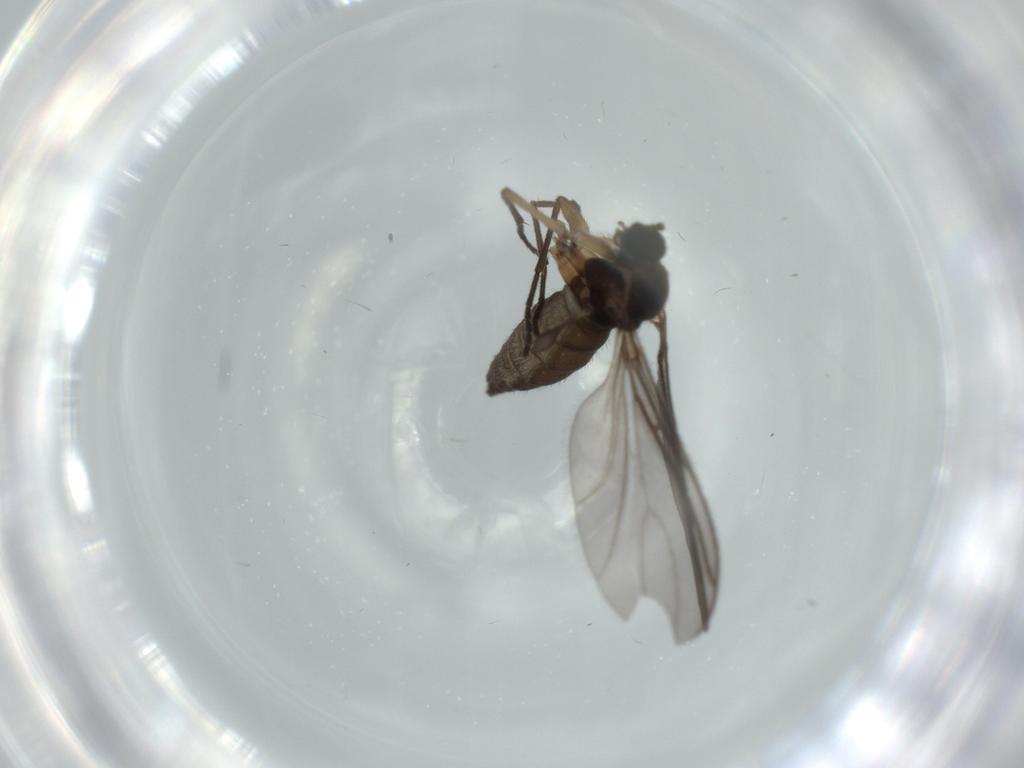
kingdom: Animalia
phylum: Arthropoda
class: Insecta
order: Diptera
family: Sciaridae
